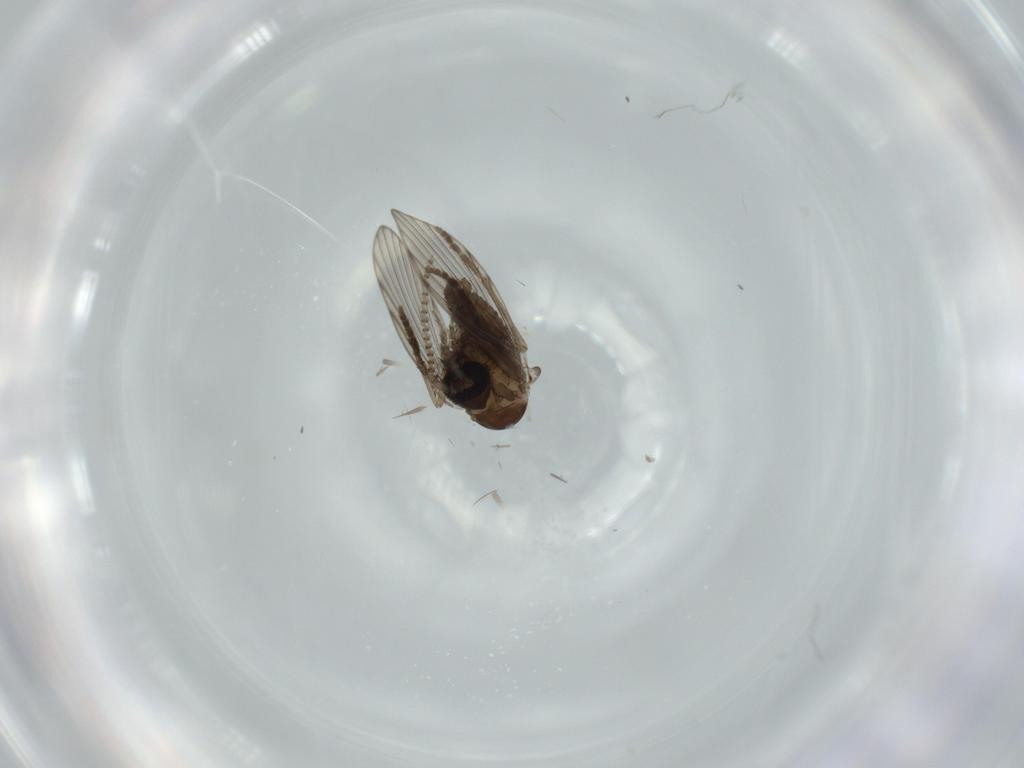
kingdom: Animalia
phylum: Arthropoda
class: Insecta
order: Diptera
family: Psychodidae
